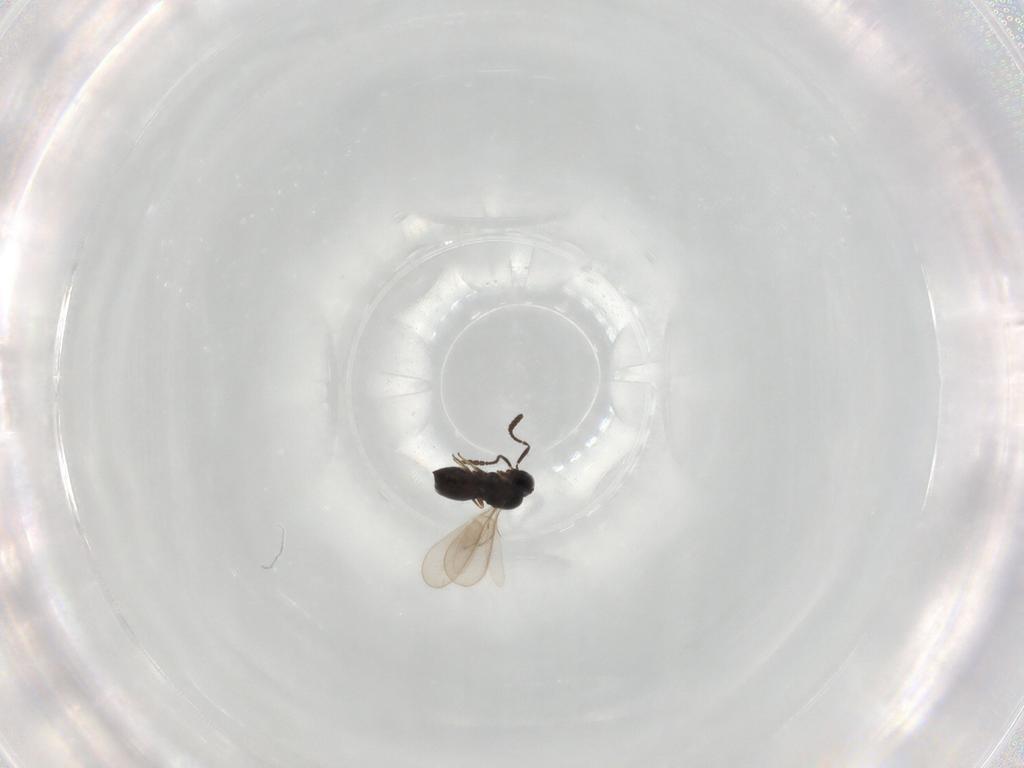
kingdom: Animalia
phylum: Arthropoda
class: Insecta
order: Hymenoptera
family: Scelionidae
